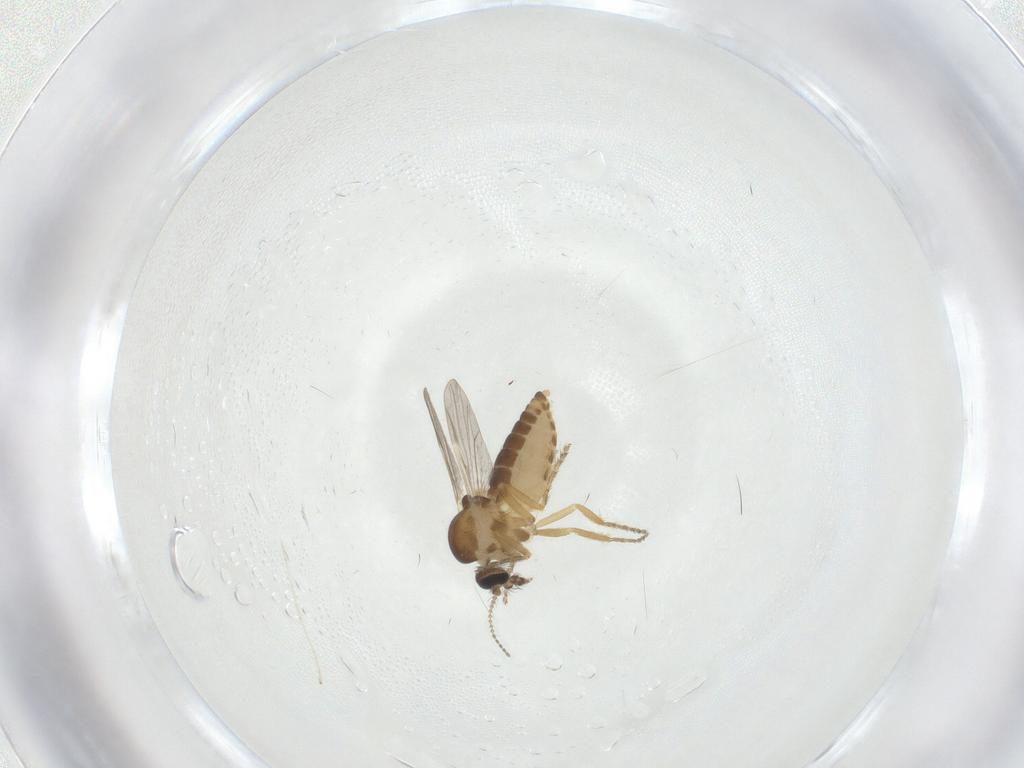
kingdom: Animalia
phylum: Arthropoda
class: Insecta
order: Diptera
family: Ceratopogonidae
